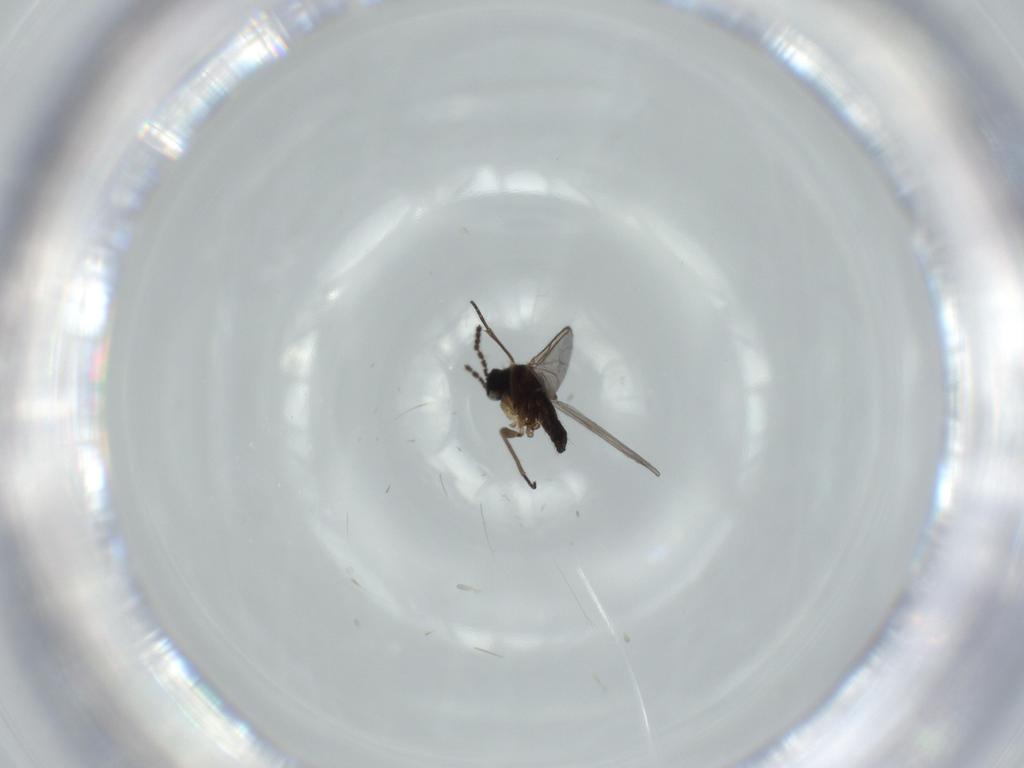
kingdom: Animalia
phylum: Arthropoda
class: Insecta
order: Diptera
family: Sciaridae
